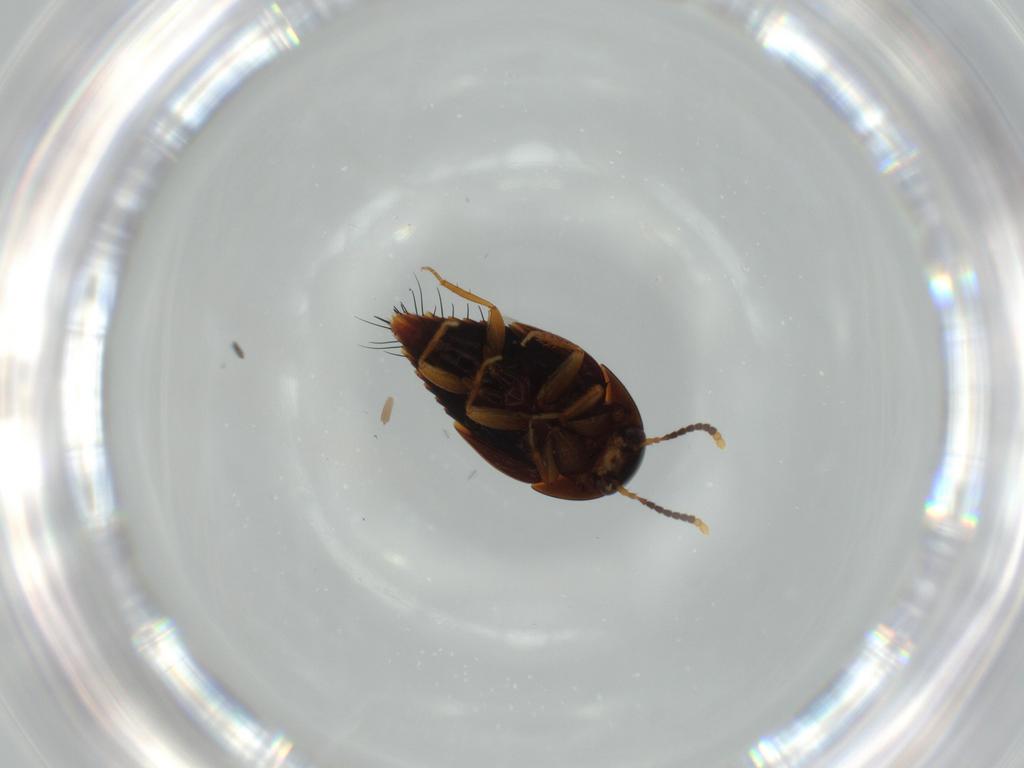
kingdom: Animalia
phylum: Arthropoda
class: Insecta
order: Coleoptera
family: Staphylinidae
